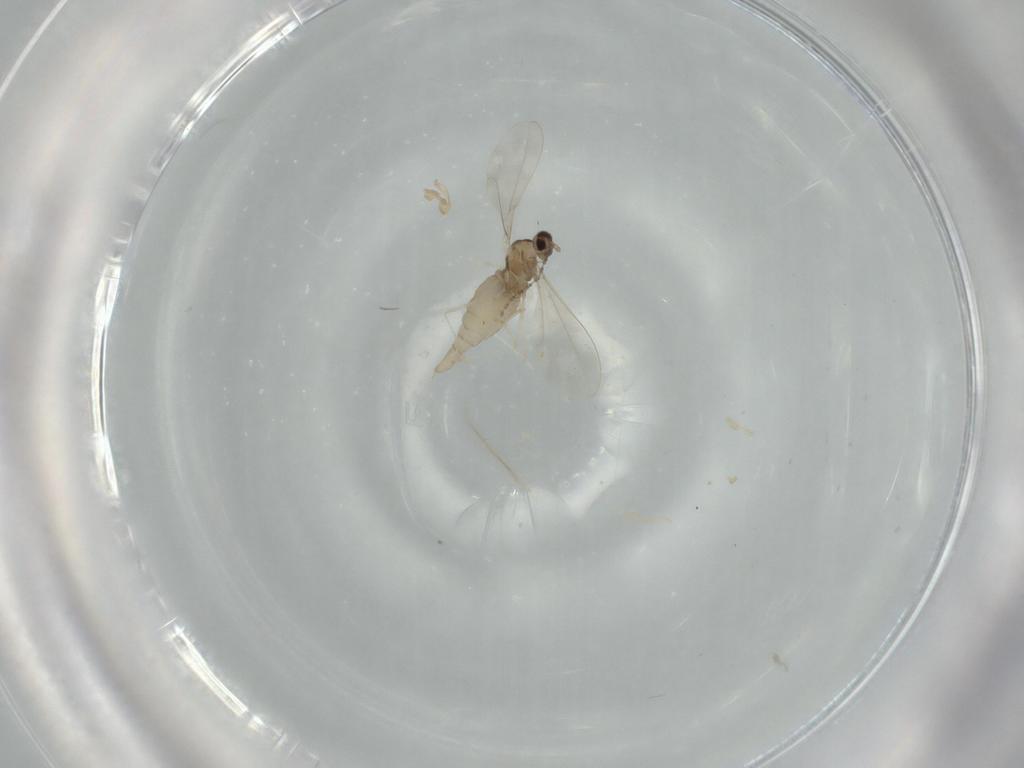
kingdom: Animalia
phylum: Arthropoda
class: Insecta
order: Diptera
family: Cecidomyiidae
